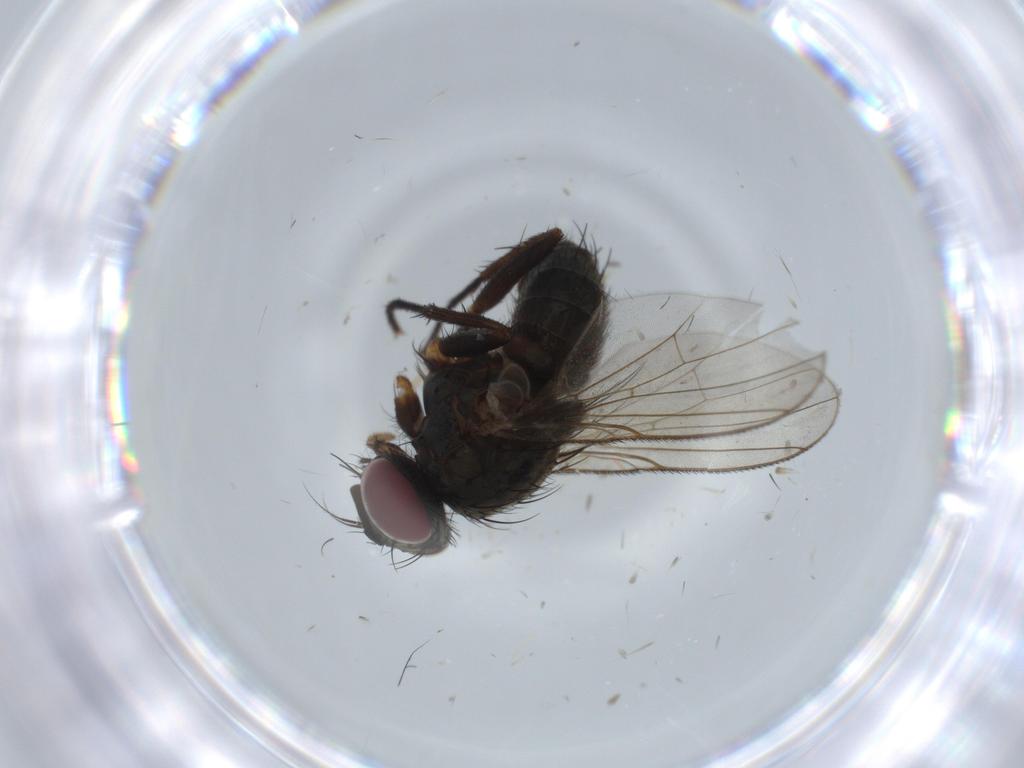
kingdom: Animalia
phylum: Arthropoda
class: Insecta
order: Diptera
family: Muscidae
